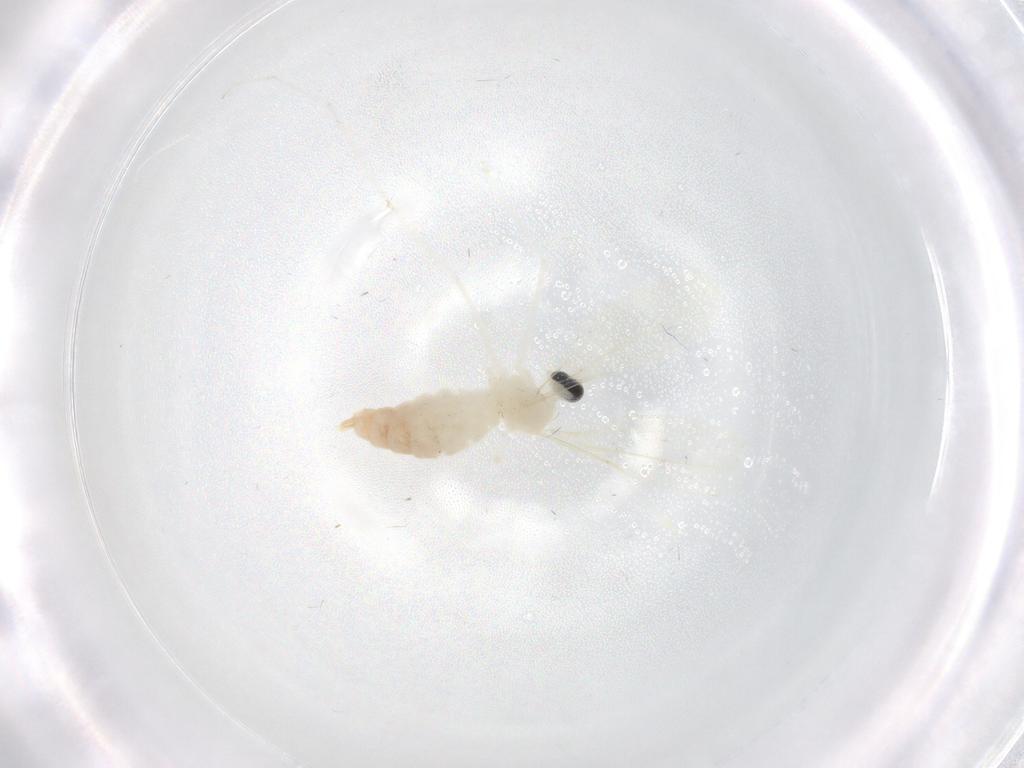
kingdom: Animalia
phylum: Arthropoda
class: Insecta
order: Diptera
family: Cecidomyiidae
